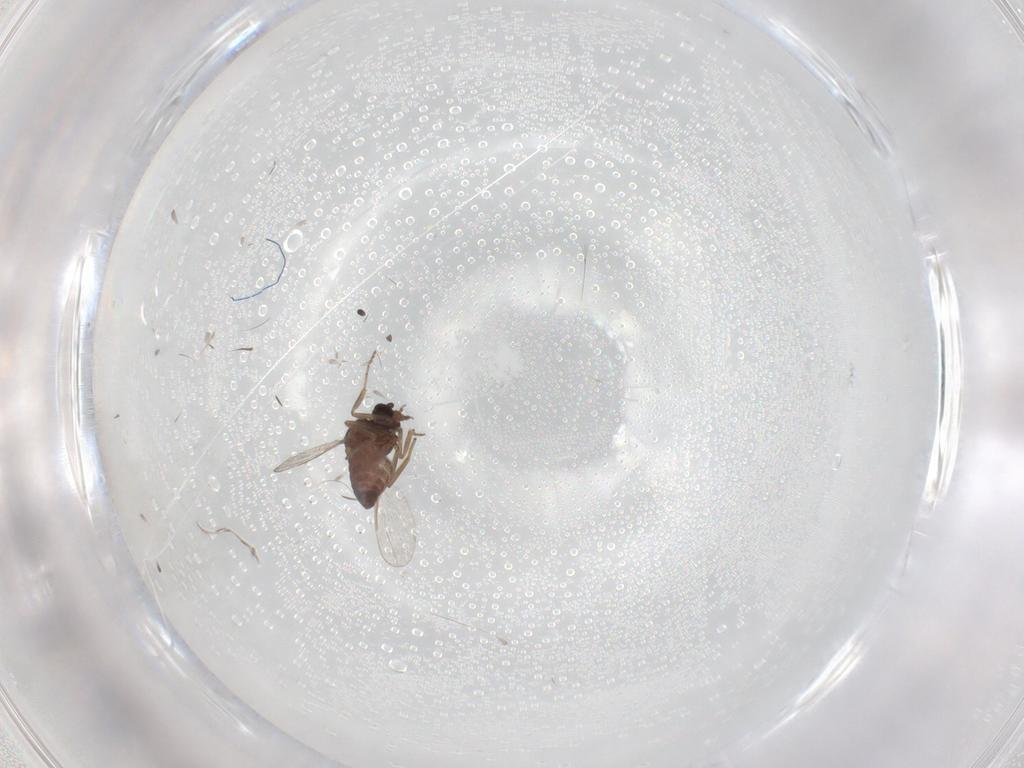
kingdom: Animalia
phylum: Arthropoda
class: Insecta
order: Diptera
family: Ceratopogonidae
